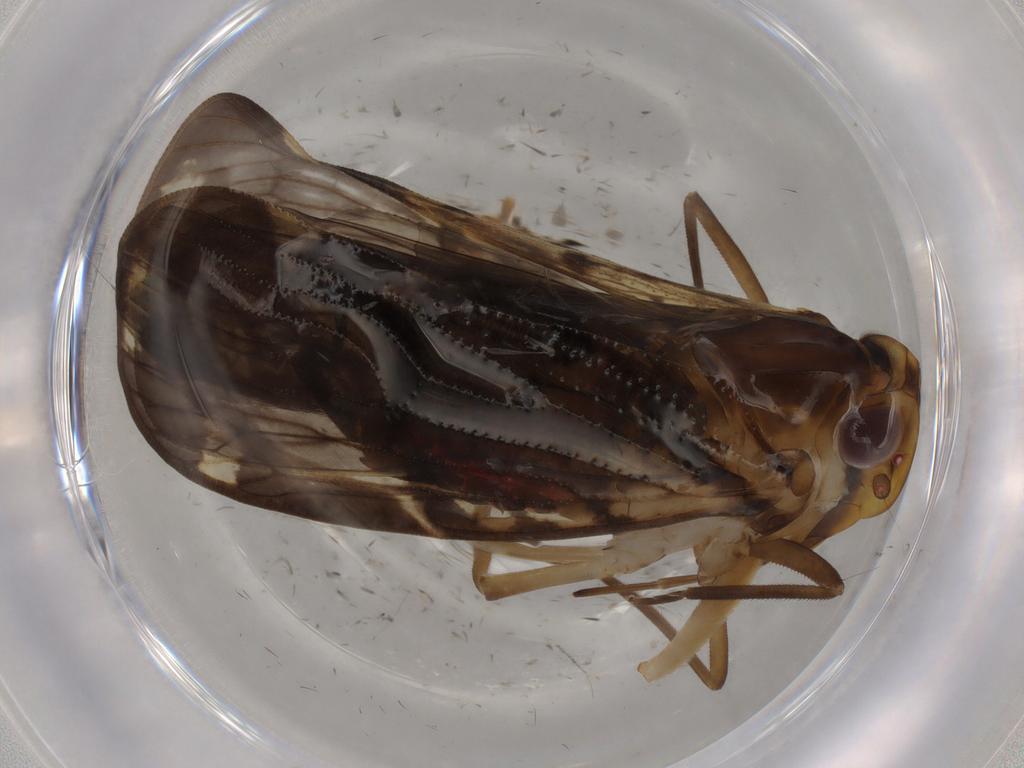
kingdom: Animalia
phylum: Arthropoda
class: Insecta
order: Hemiptera
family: Cixiidae
